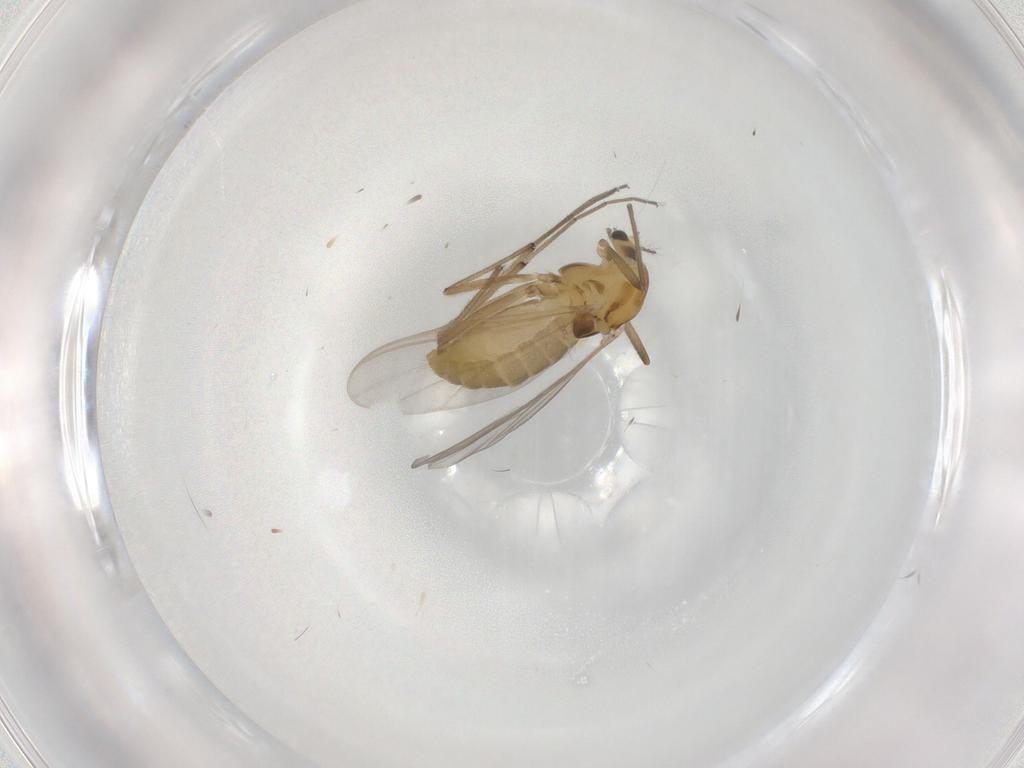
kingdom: Animalia
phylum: Arthropoda
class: Insecta
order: Diptera
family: Chironomidae
